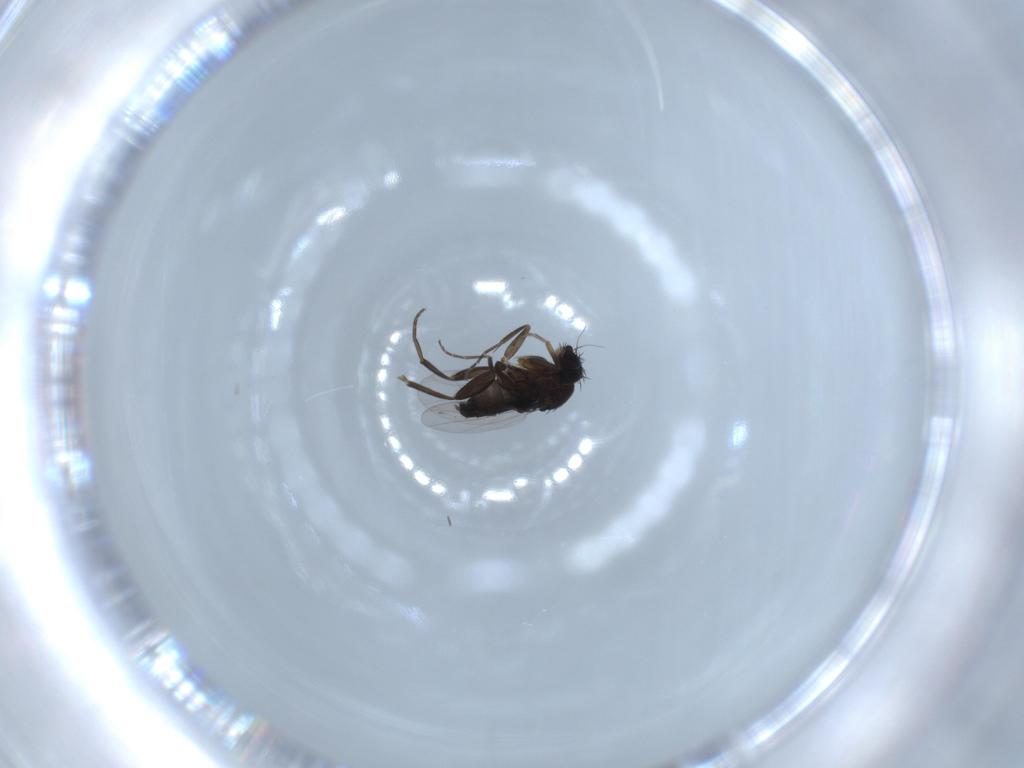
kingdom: Animalia
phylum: Arthropoda
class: Insecta
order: Diptera
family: Phoridae
